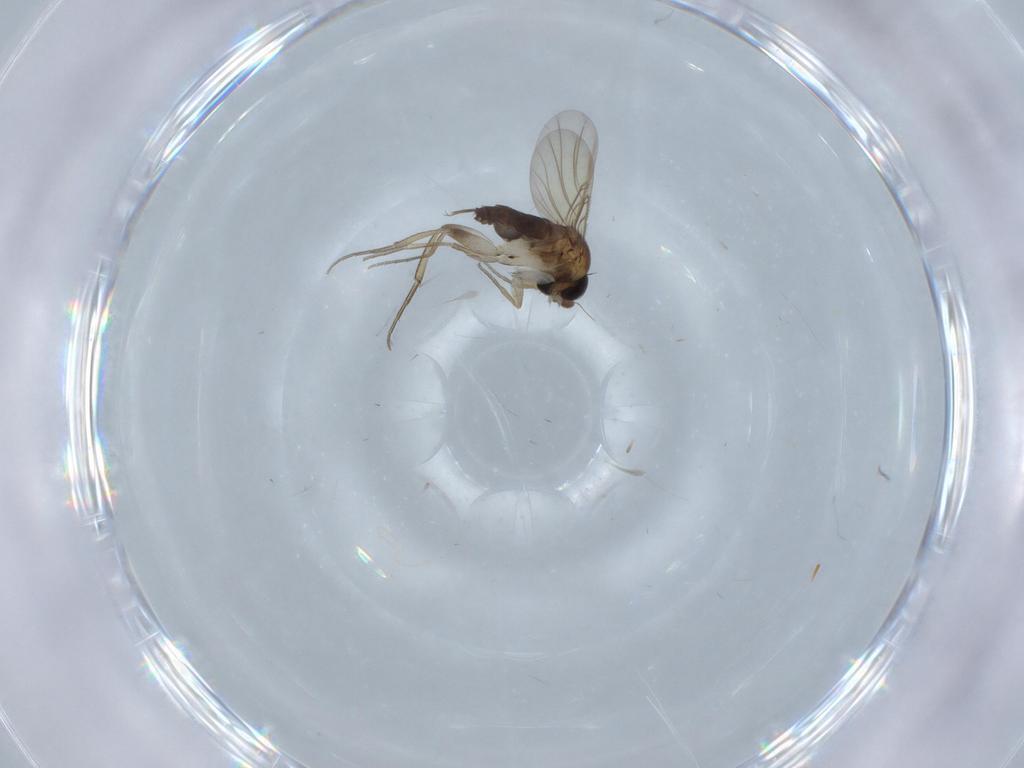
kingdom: Animalia
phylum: Arthropoda
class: Insecta
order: Diptera
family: Phoridae
